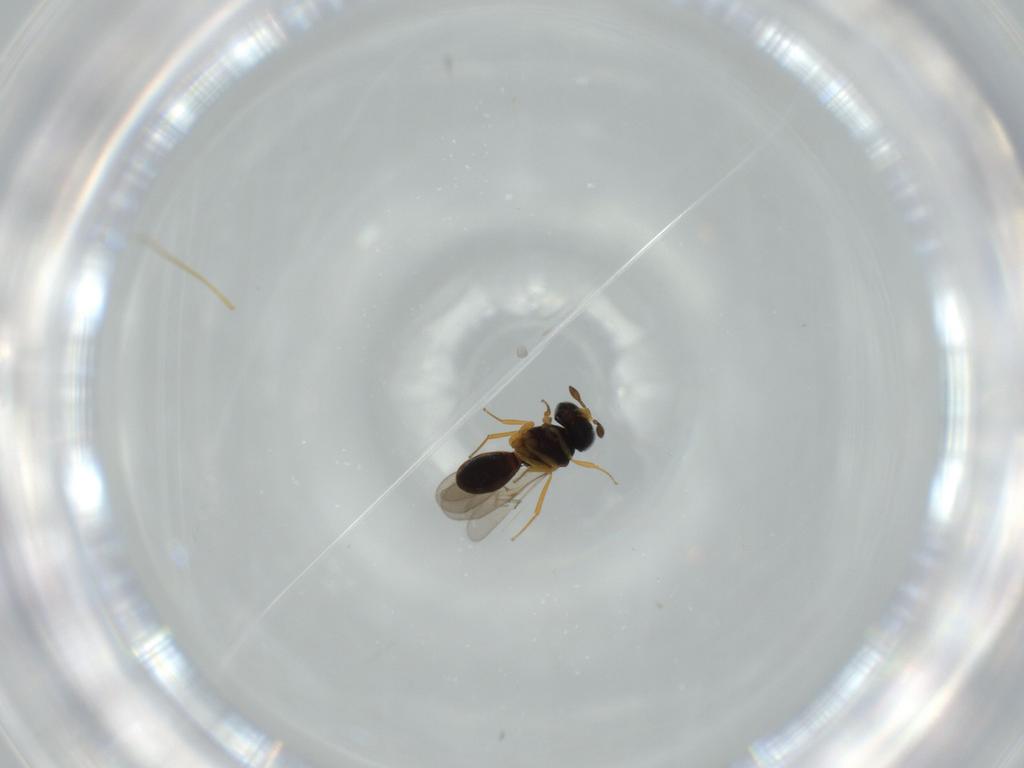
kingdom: Animalia
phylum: Arthropoda
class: Insecta
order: Hymenoptera
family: Scelionidae
